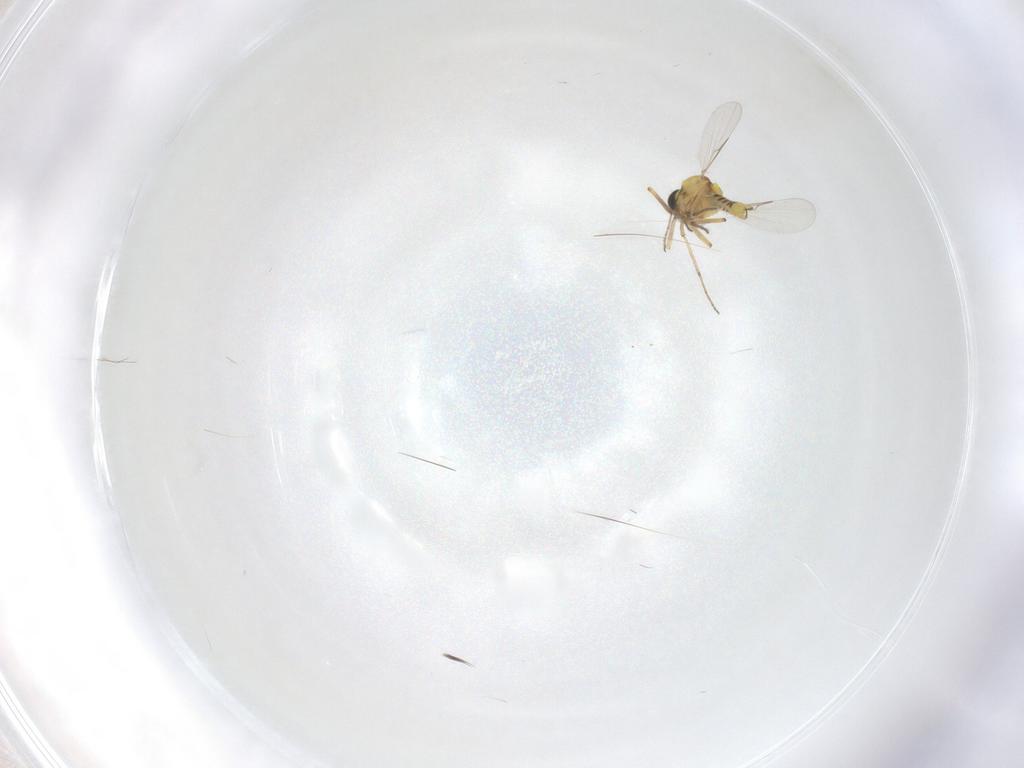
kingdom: Animalia
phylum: Arthropoda
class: Insecta
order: Diptera
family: Ceratopogonidae
